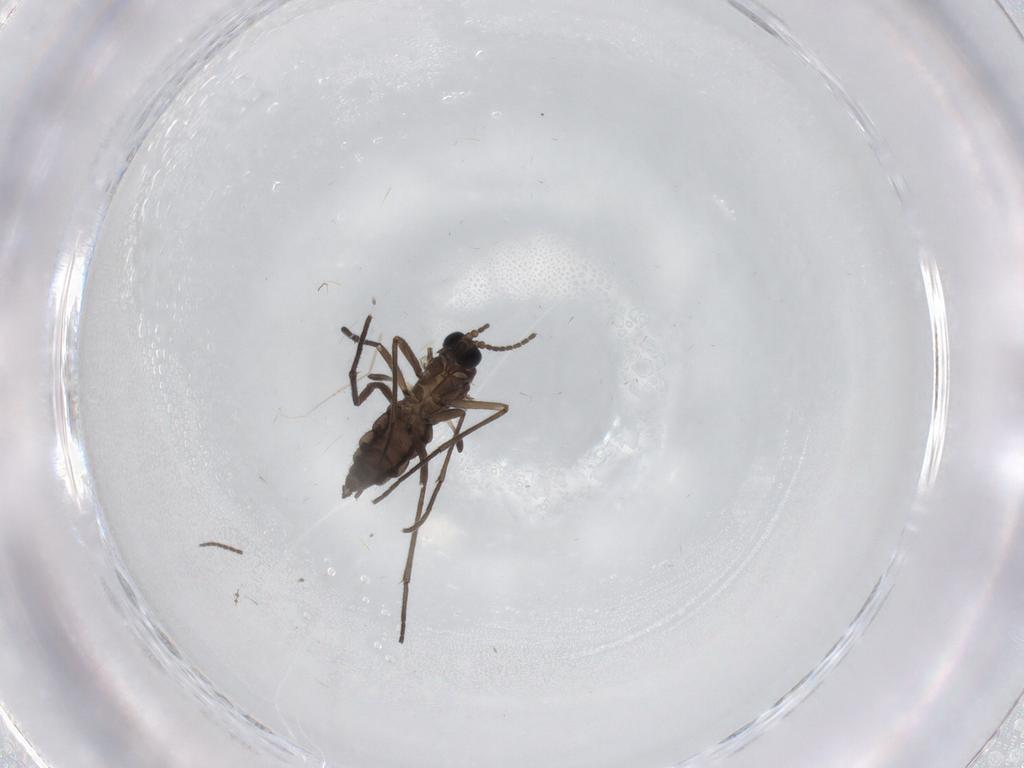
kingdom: Animalia
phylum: Arthropoda
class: Insecta
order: Diptera
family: Sciaridae
